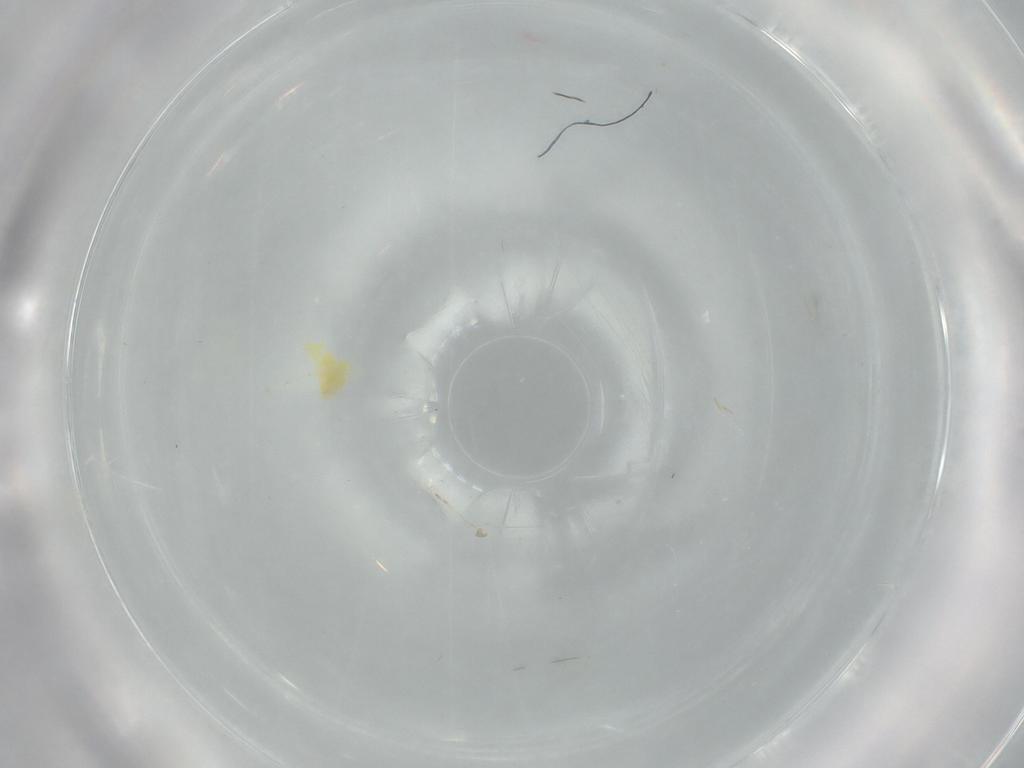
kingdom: Animalia
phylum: Arthropoda
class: Insecta
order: Hemiptera
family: Aleyrodidae
